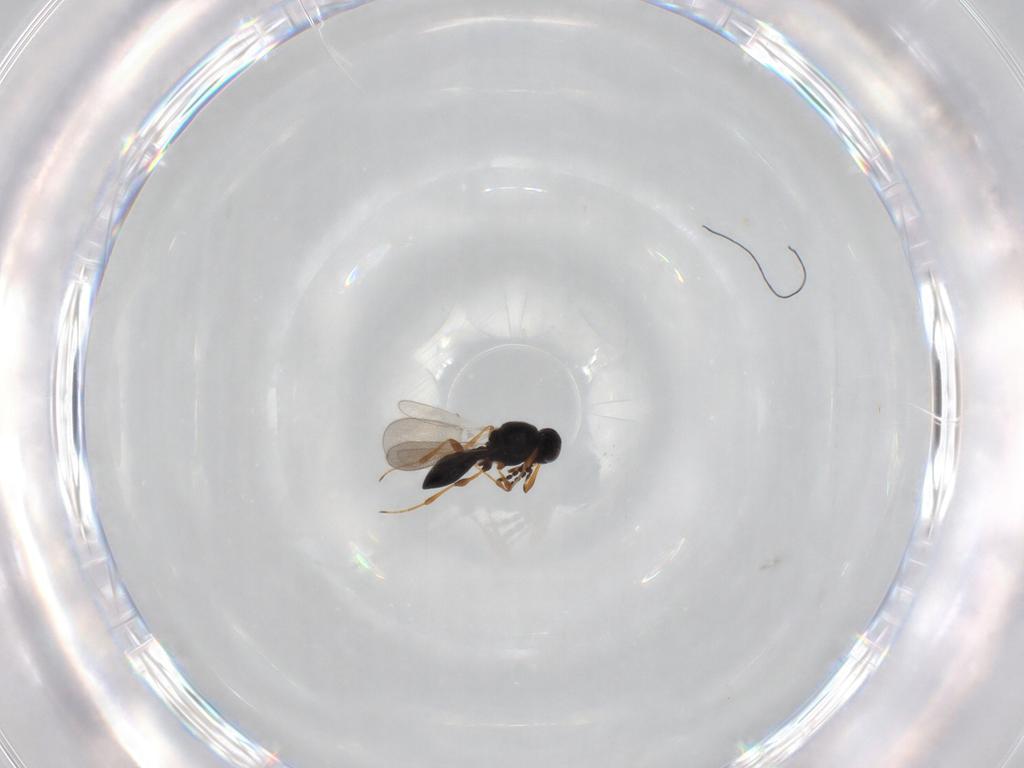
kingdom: Animalia
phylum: Arthropoda
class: Insecta
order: Hymenoptera
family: Platygastridae
